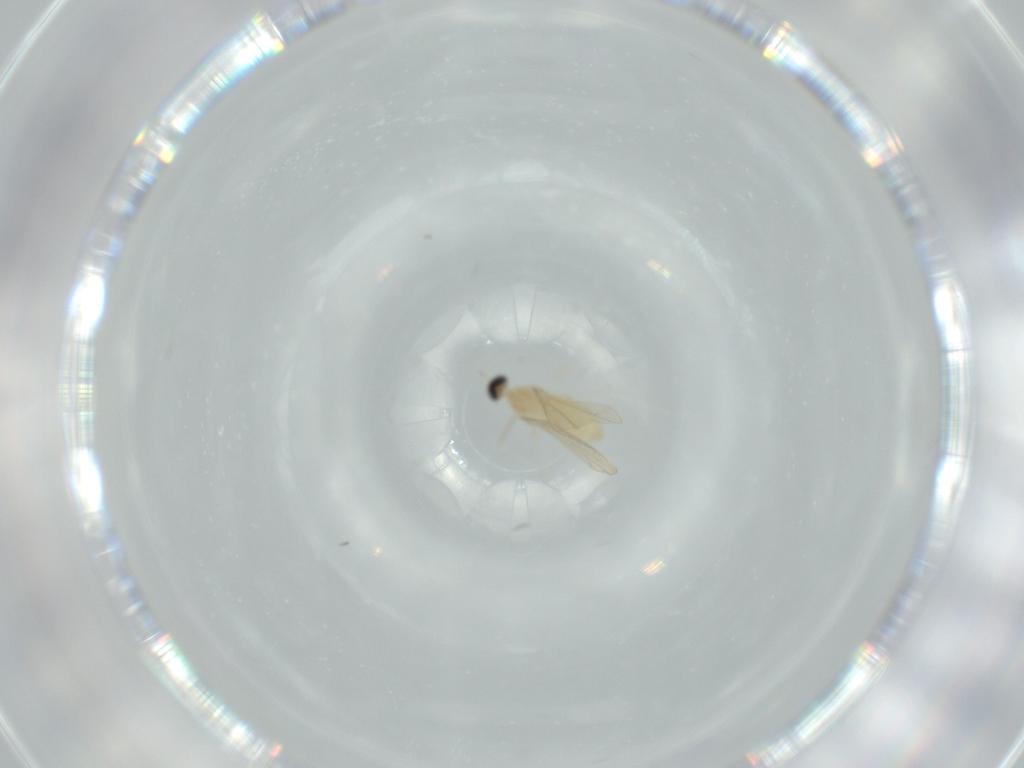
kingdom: Animalia
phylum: Arthropoda
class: Insecta
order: Diptera
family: Cecidomyiidae
